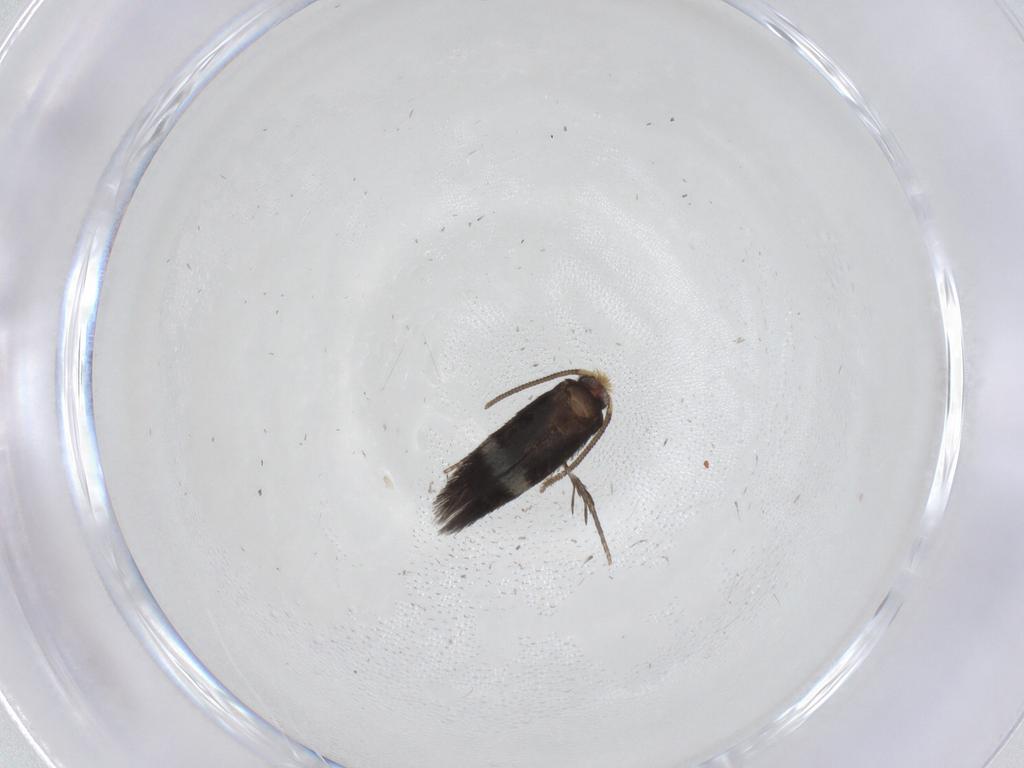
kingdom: Animalia
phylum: Arthropoda
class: Insecta
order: Lepidoptera
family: Nepticulidae
